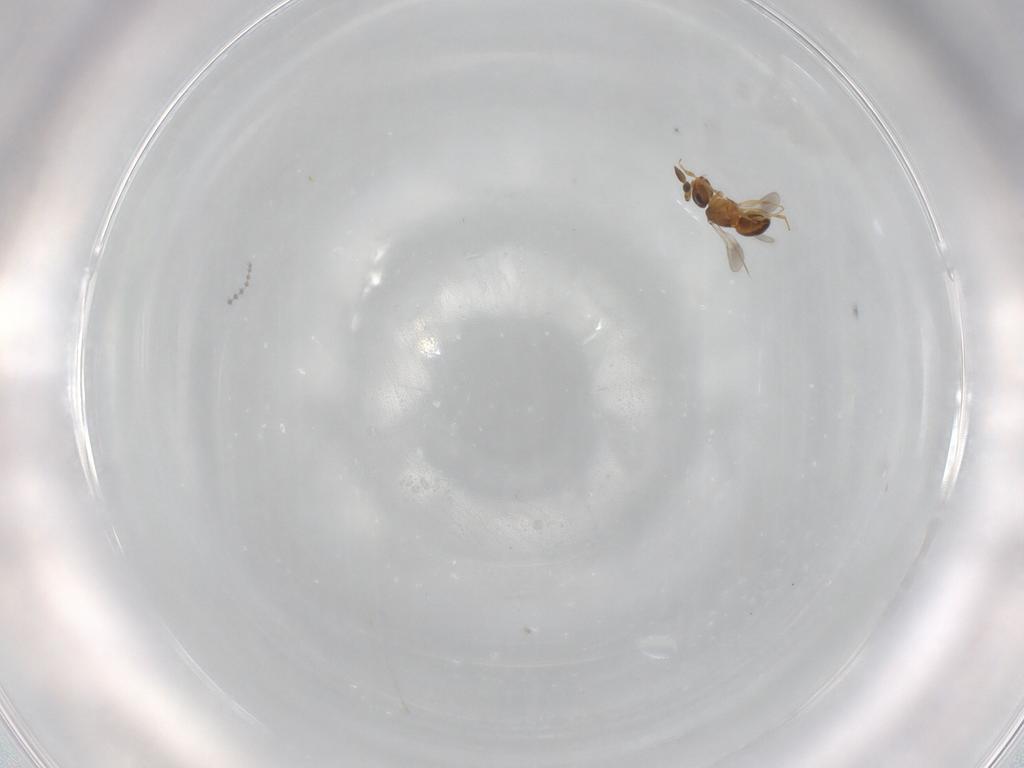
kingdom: Animalia
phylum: Arthropoda
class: Insecta
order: Hymenoptera
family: Scelionidae
